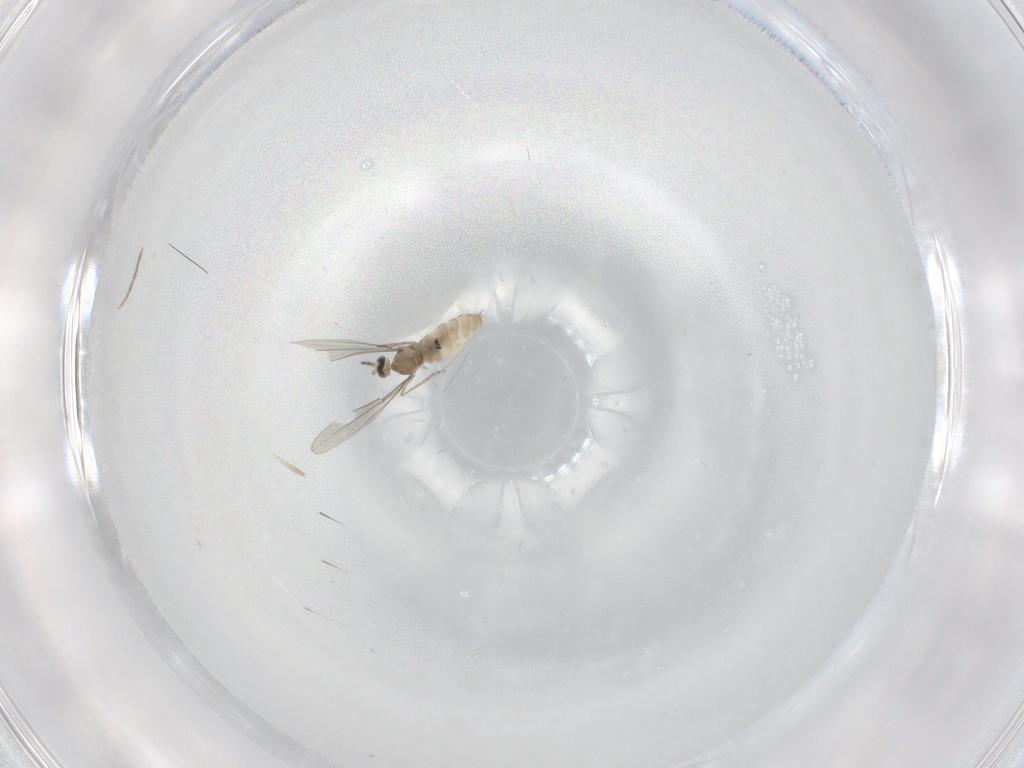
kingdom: Animalia
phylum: Arthropoda
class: Insecta
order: Diptera
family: Cecidomyiidae
